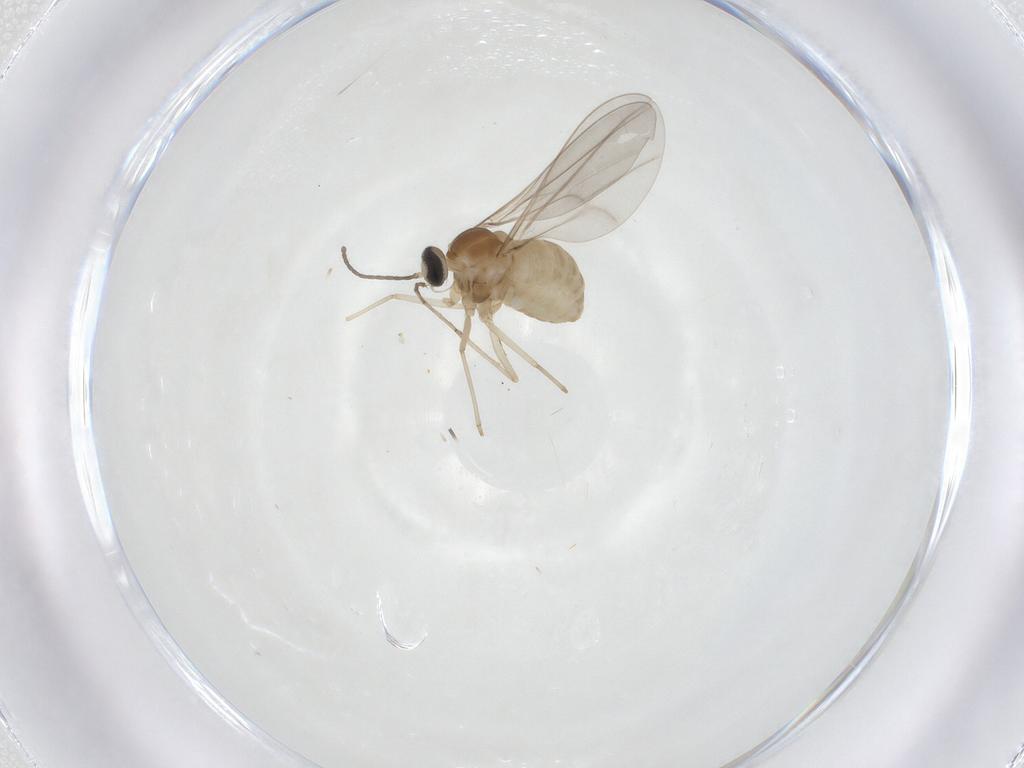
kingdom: Animalia
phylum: Arthropoda
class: Insecta
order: Diptera
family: Cecidomyiidae
